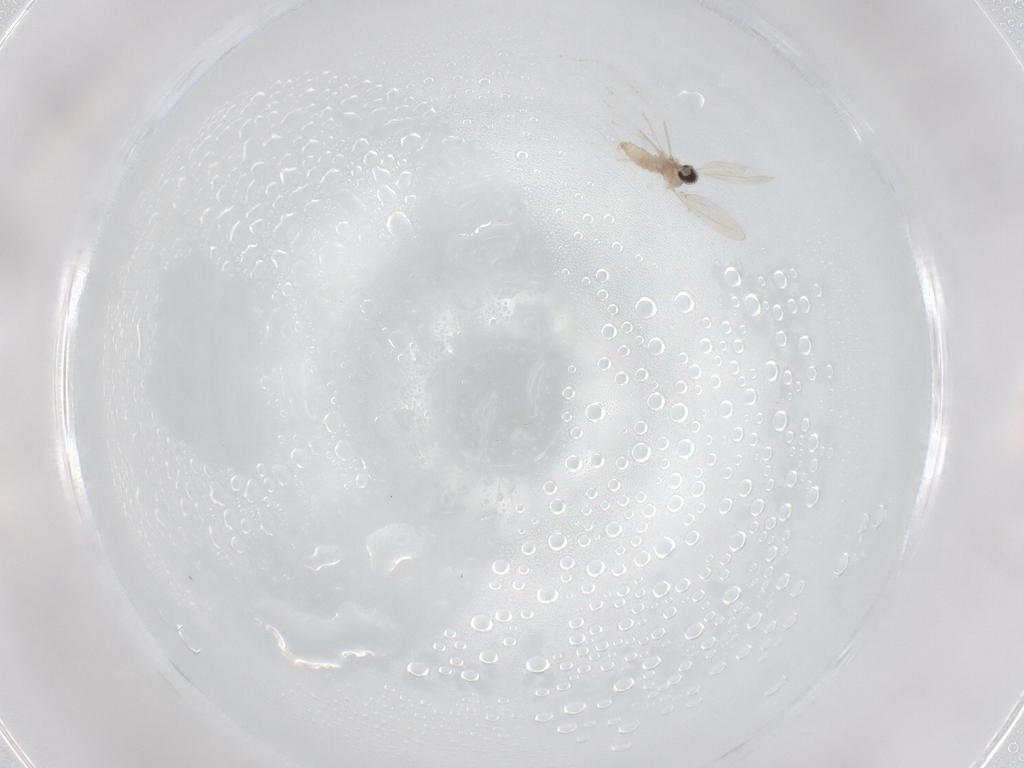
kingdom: Animalia
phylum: Arthropoda
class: Insecta
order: Diptera
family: Cecidomyiidae
